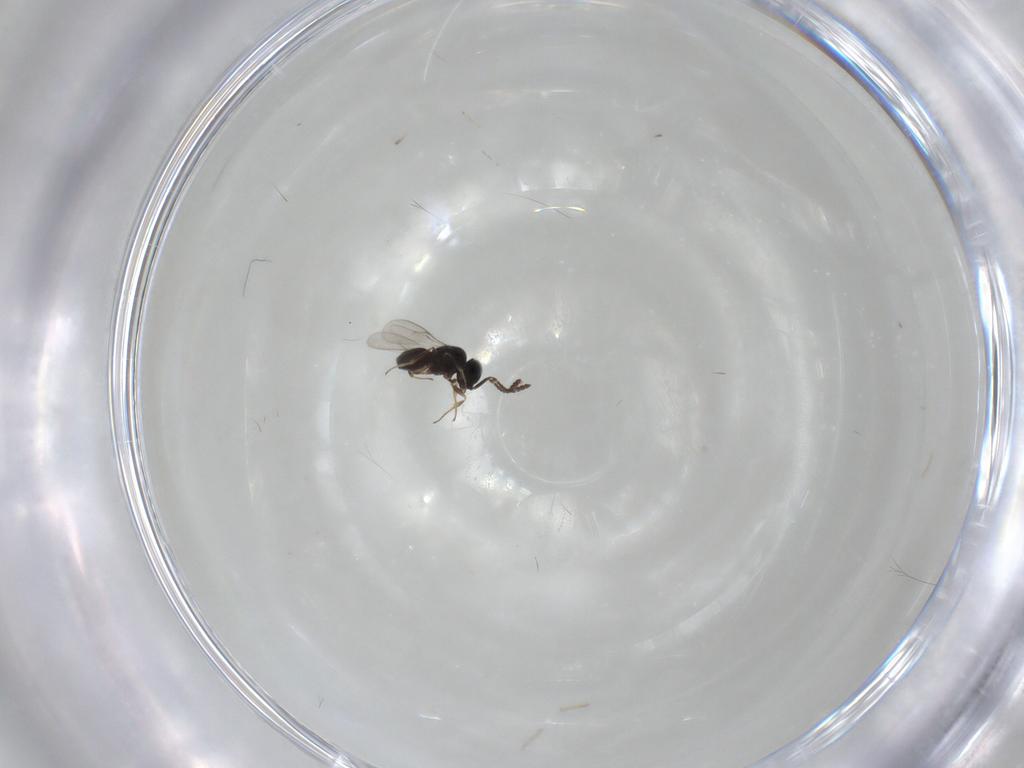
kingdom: Animalia
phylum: Arthropoda
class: Insecta
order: Hymenoptera
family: Scelionidae
